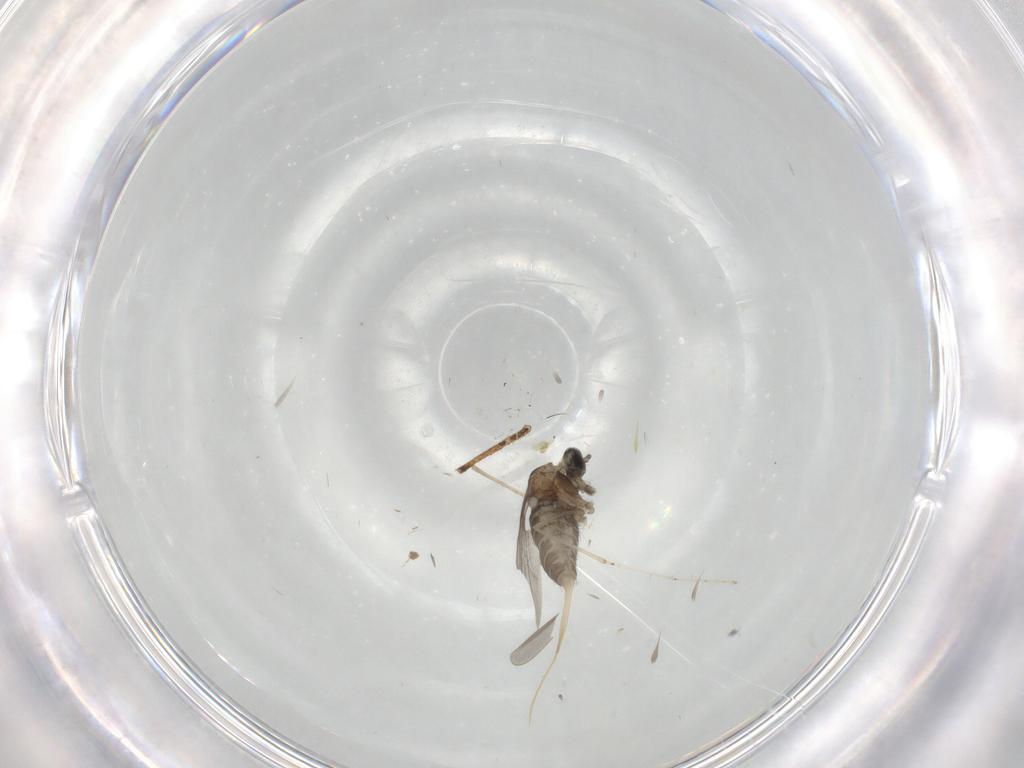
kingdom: Animalia
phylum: Arthropoda
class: Insecta
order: Diptera
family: Cecidomyiidae
